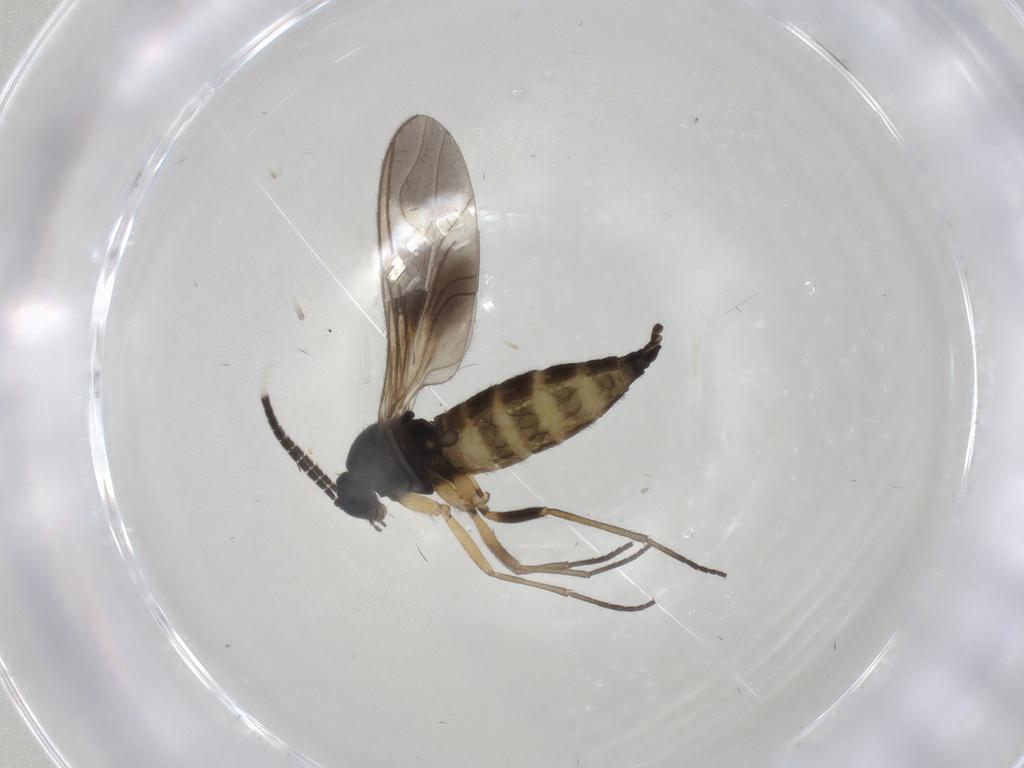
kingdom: Animalia
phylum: Arthropoda
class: Insecta
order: Diptera
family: Sciaridae
